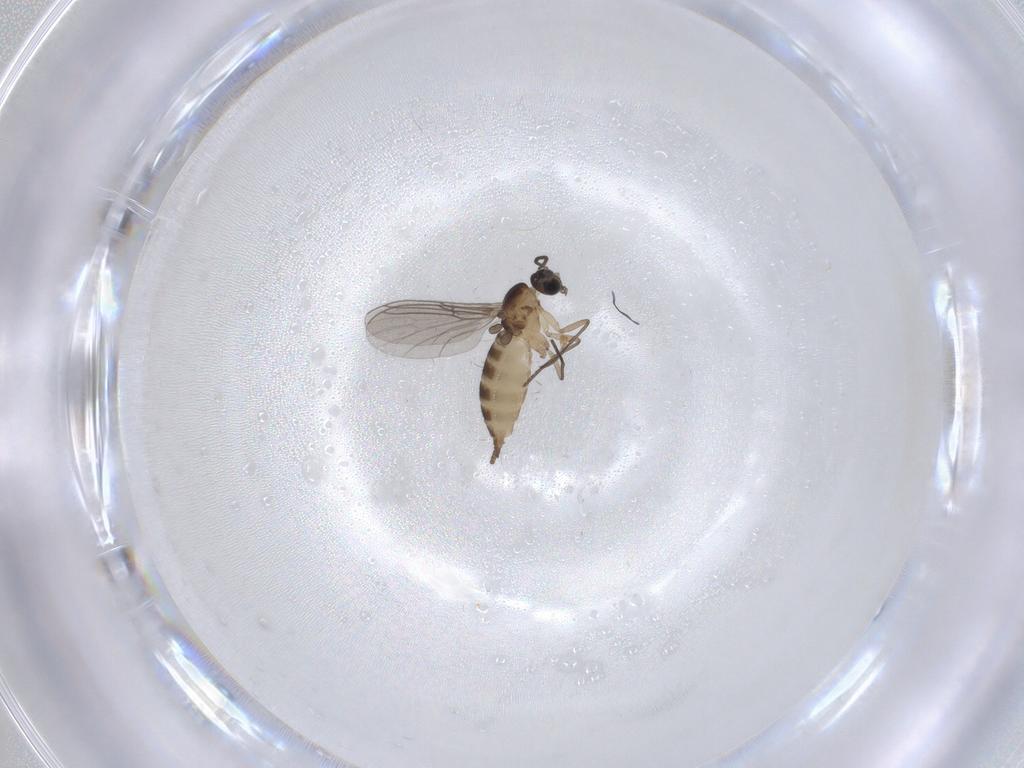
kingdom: Animalia
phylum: Arthropoda
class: Insecta
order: Diptera
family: Sciaridae
